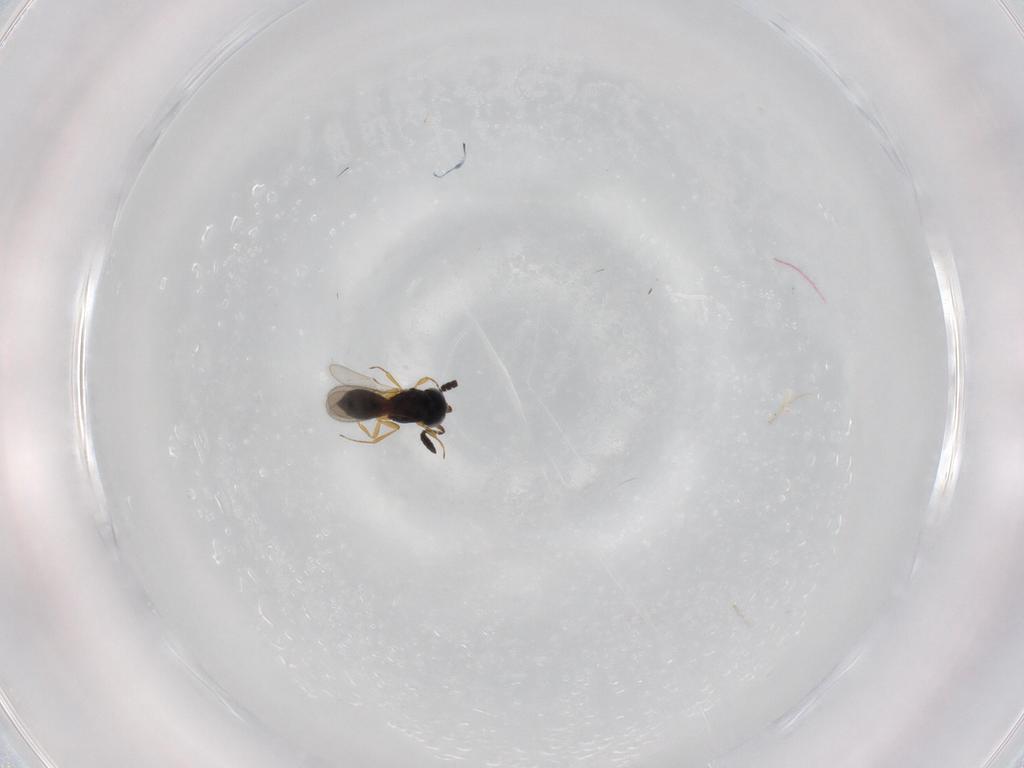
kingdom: Animalia
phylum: Arthropoda
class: Insecta
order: Hymenoptera
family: Scelionidae
